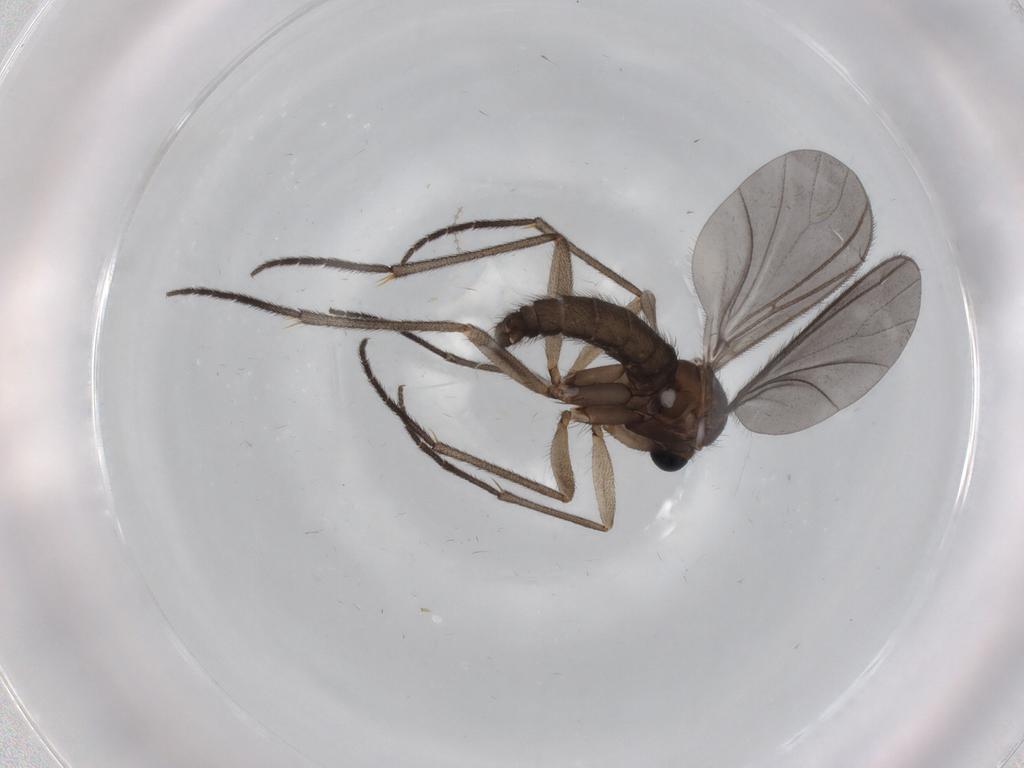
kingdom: Animalia
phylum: Arthropoda
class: Insecta
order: Diptera
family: Sciaridae
